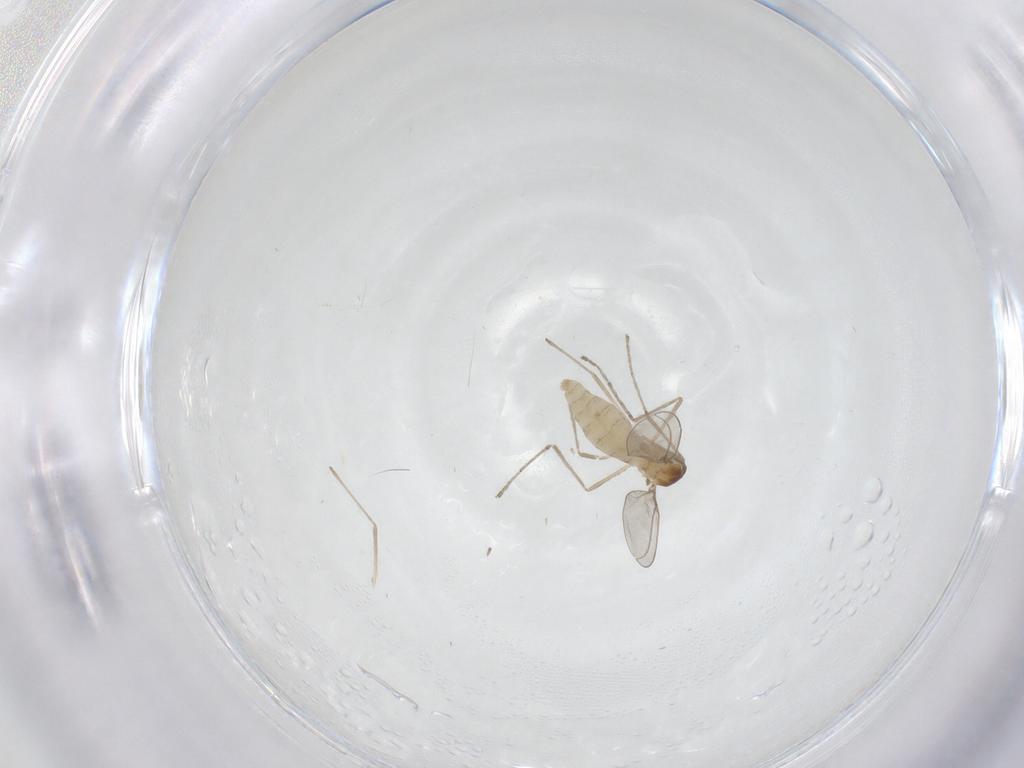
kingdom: Animalia
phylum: Arthropoda
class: Insecta
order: Diptera
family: Cecidomyiidae
